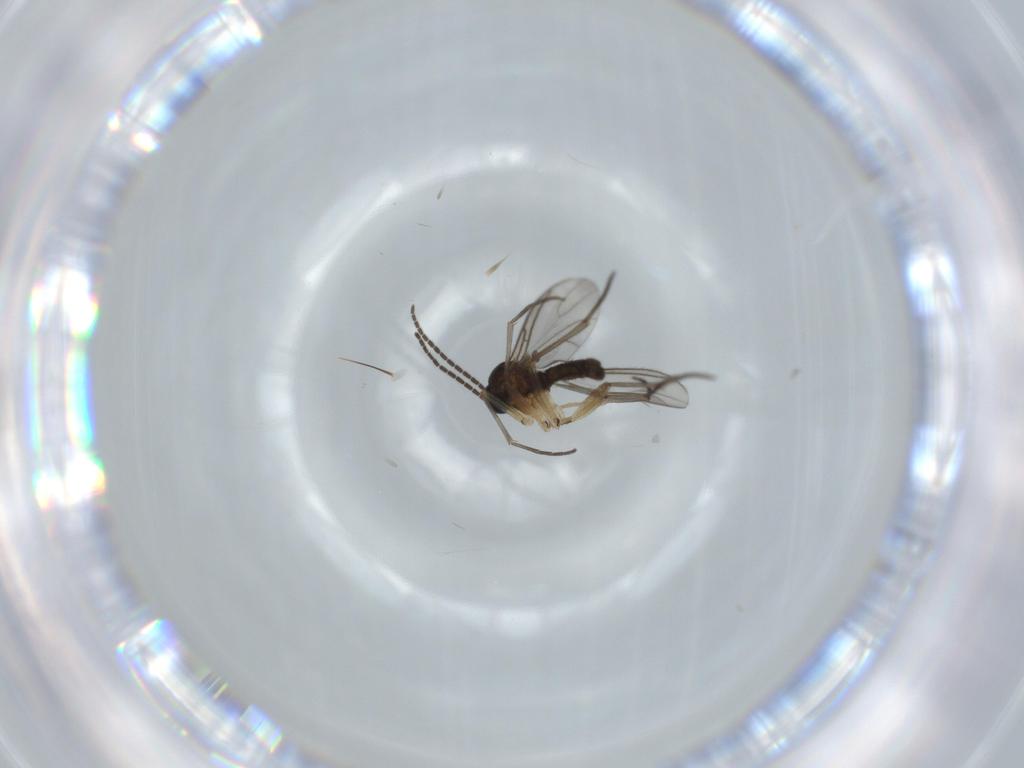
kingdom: Animalia
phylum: Arthropoda
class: Insecta
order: Diptera
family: Sciaridae
